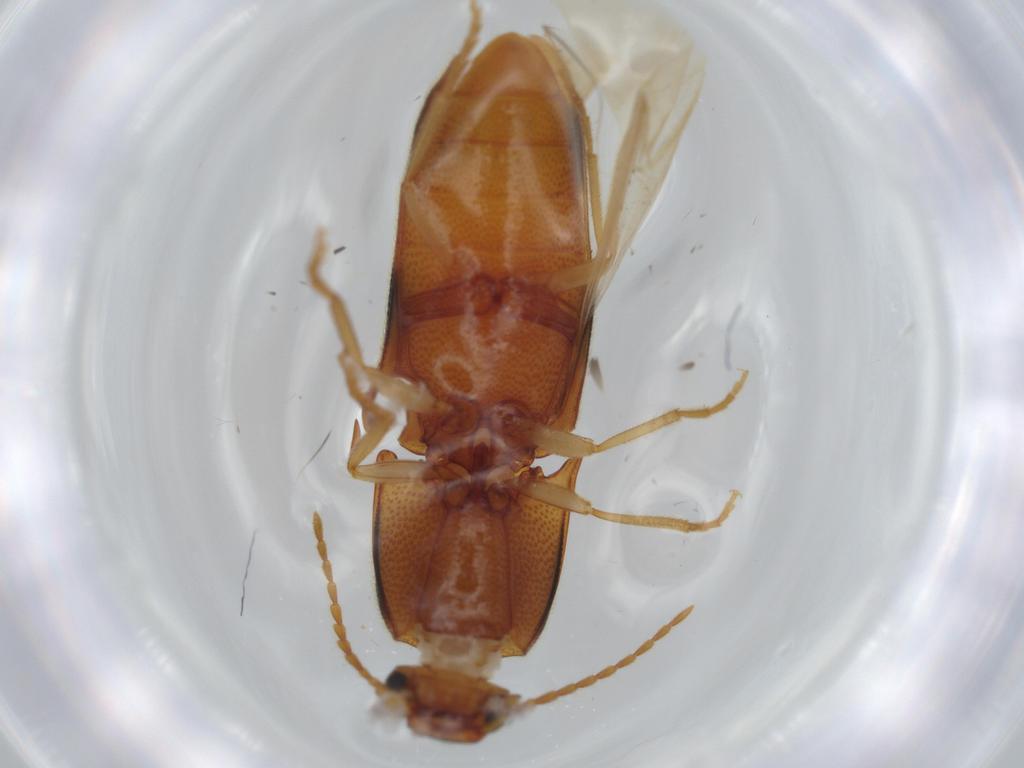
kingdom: Animalia
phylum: Arthropoda
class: Insecta
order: Coleoptera
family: Elateridae
